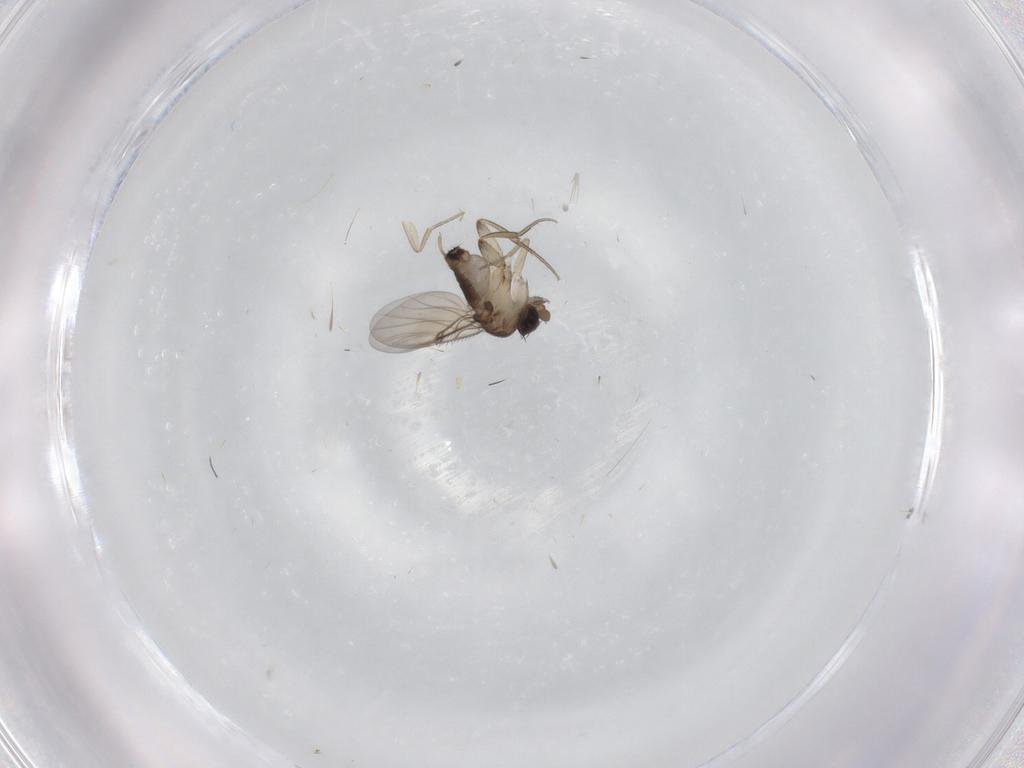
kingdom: Animalia
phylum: Arthropoda
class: Insecta
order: Diptera
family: Phoridae
